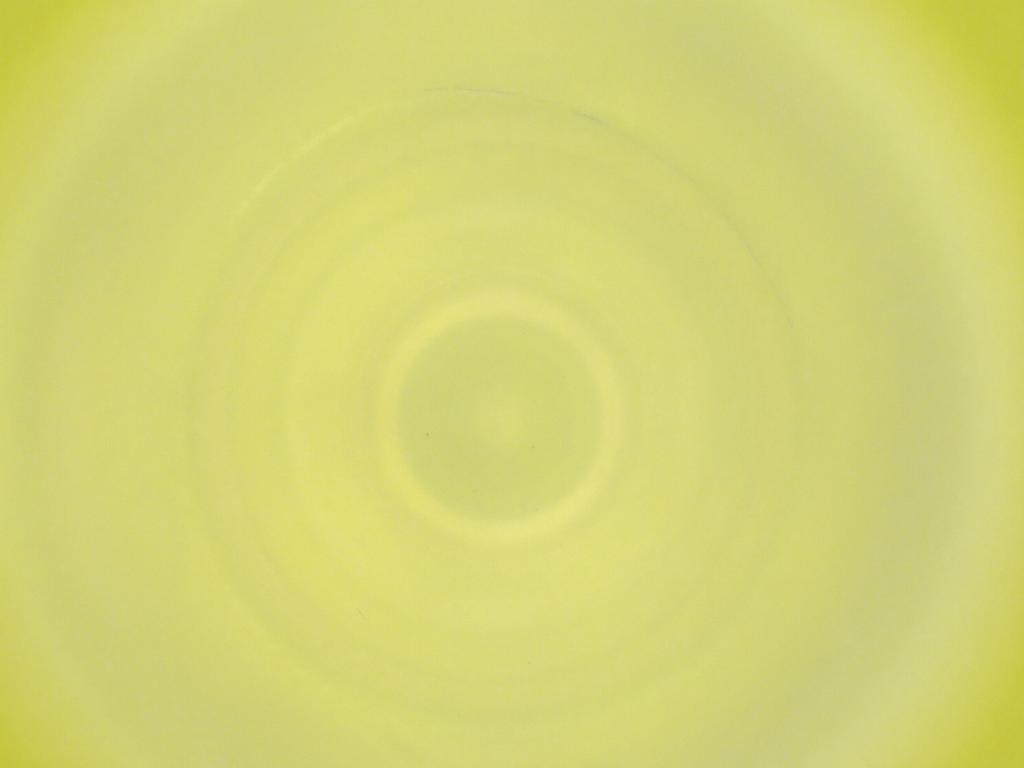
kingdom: Animalia
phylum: Arthropoda
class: Insecta
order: Diptera
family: Cecidomyiidae
